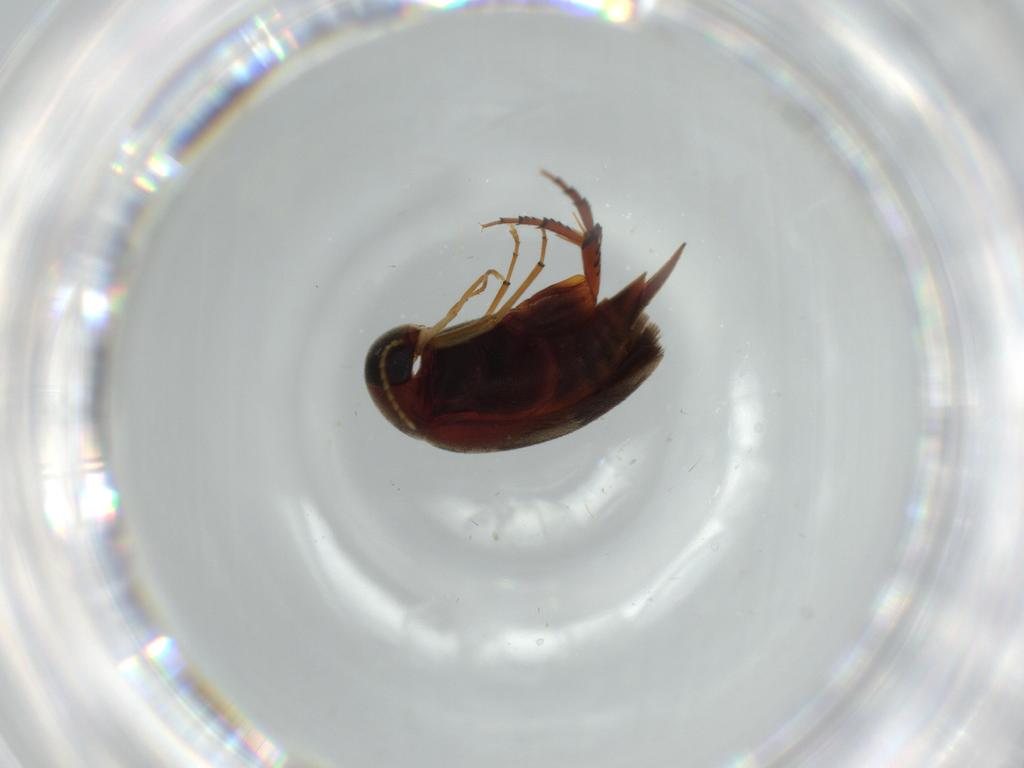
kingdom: Animalia
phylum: Arthropoda
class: Insecta
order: Coleoptera
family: Mordellidae
